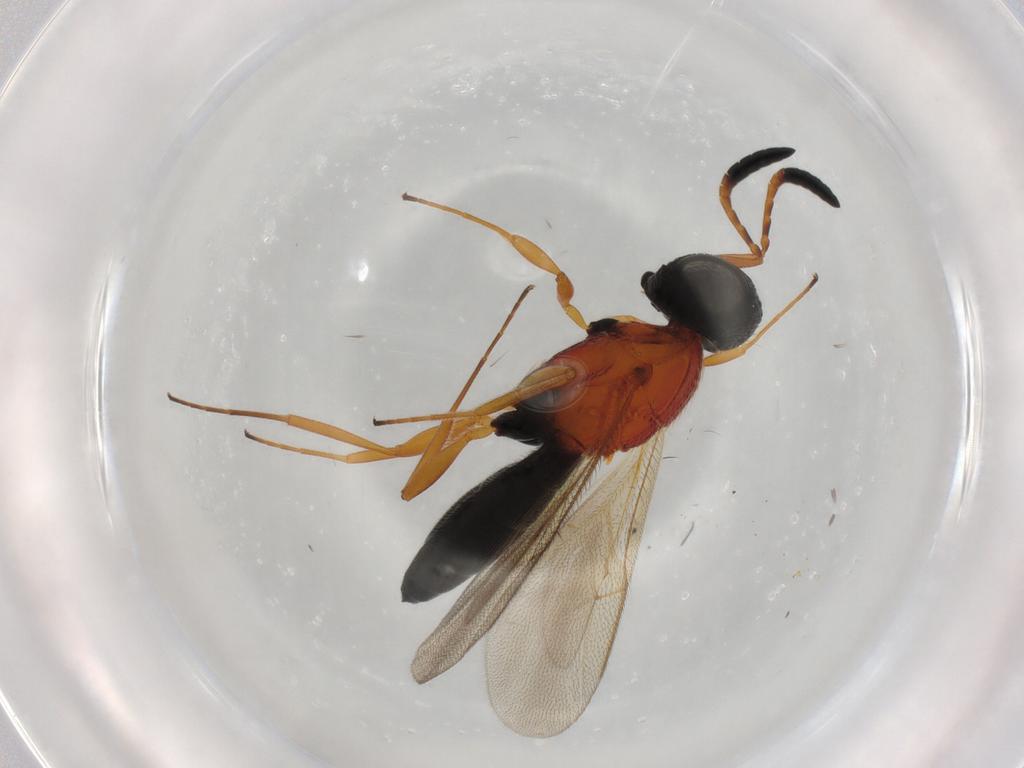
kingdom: Animalia
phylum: Arthropoda
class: Insecta
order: Hymenoptera
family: Scelionidae
